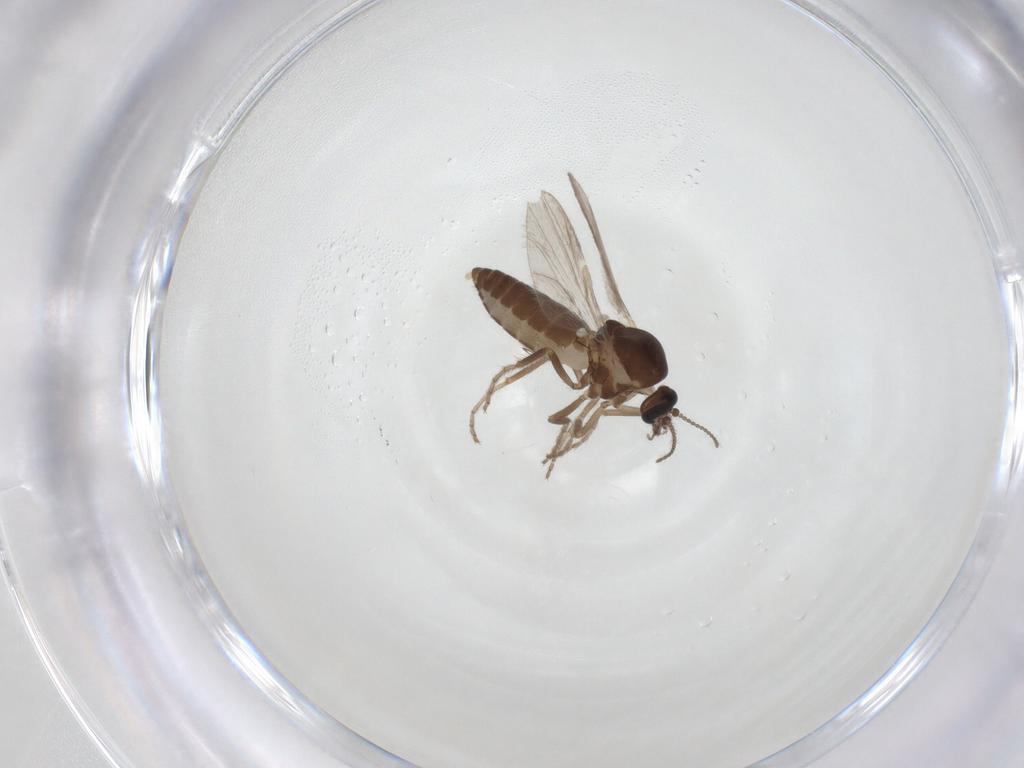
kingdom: Animalia
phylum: Arthropoda
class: Insecta
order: Diptera
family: Ceratopogonidae
